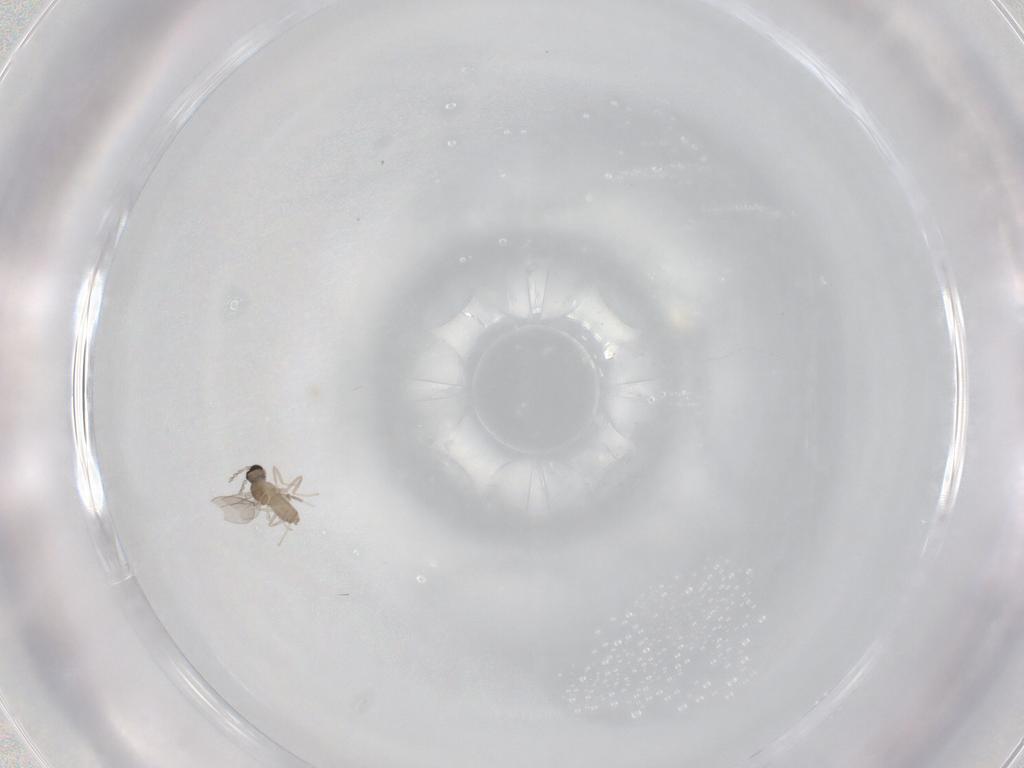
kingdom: Animalia
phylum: Arthropoda
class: Insecta
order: Diptera
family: Cecidomyiidae
